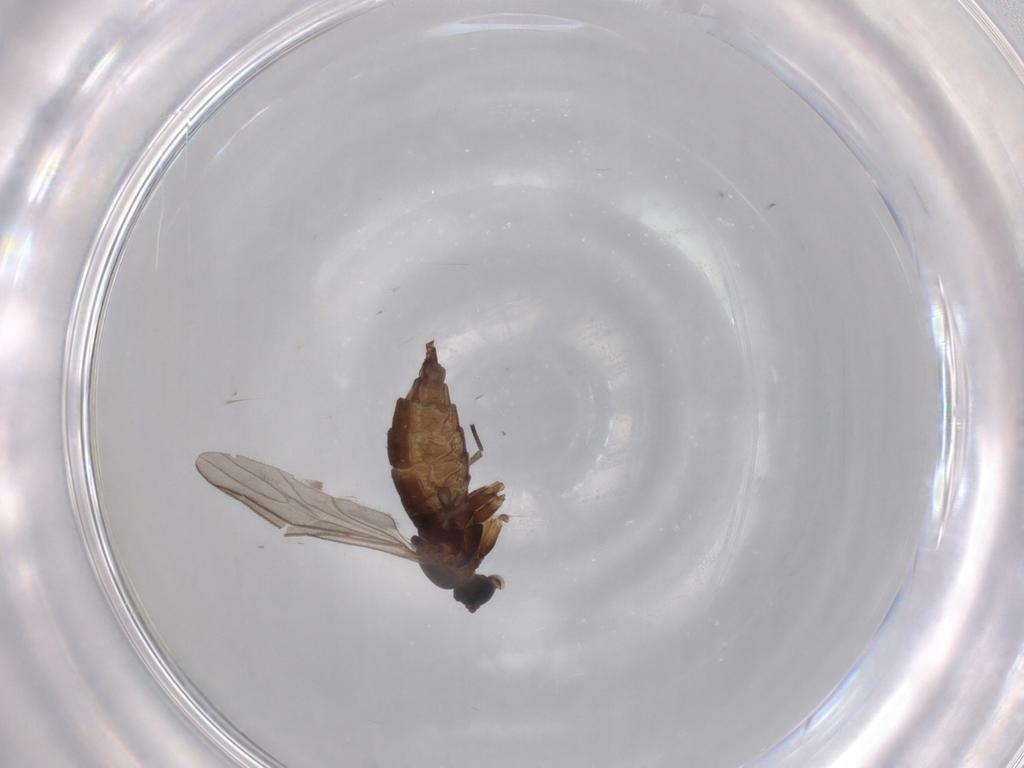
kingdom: Animalia
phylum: Arthropoda
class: Insecta
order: Diptera
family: Sciaridae
